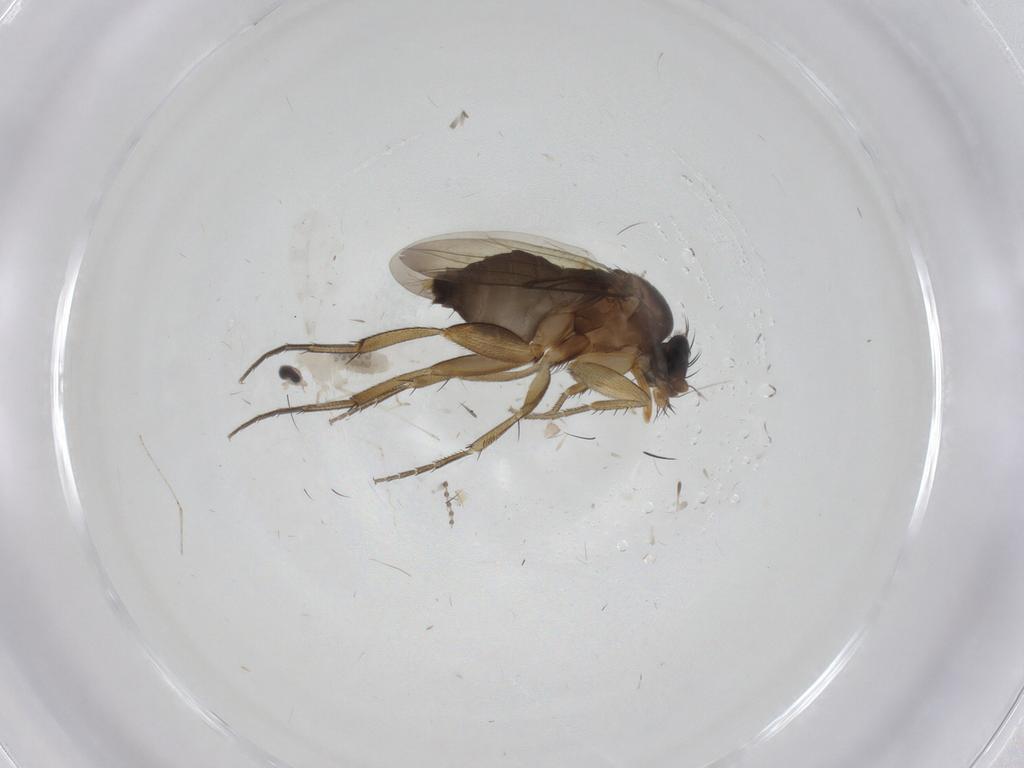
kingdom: Animalia
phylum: Arthropoda
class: Insecta
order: Diptera
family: Phoridae
